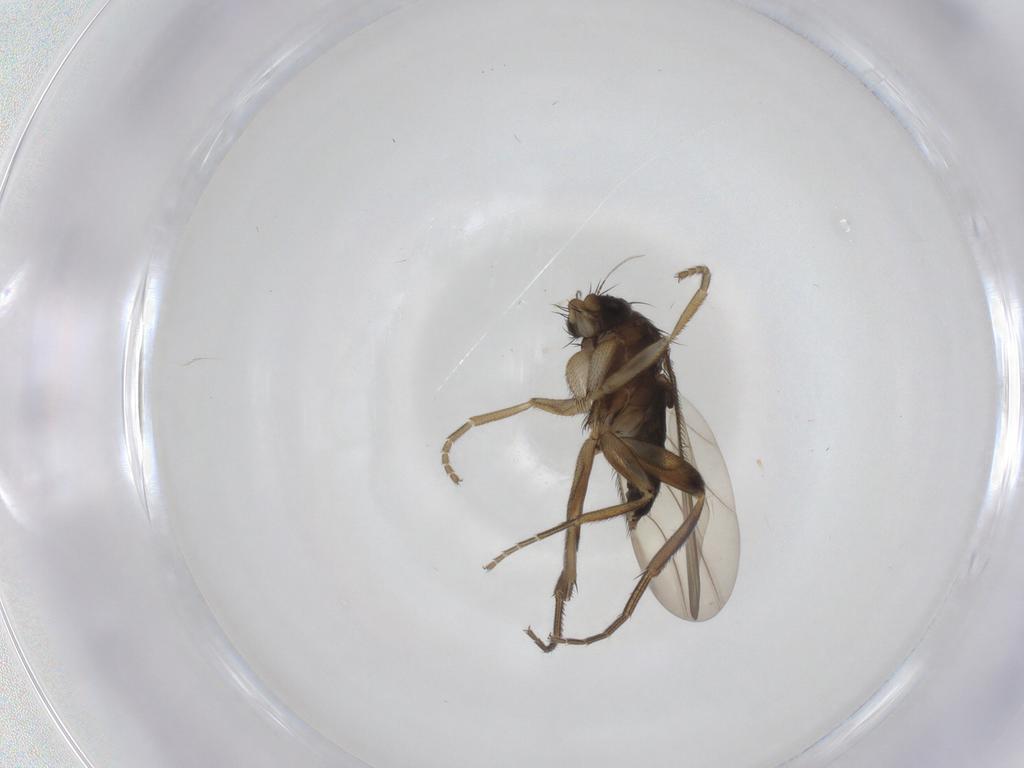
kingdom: Animalia
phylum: Arthropoda
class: Insecta
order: Diptera
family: Phoridae
